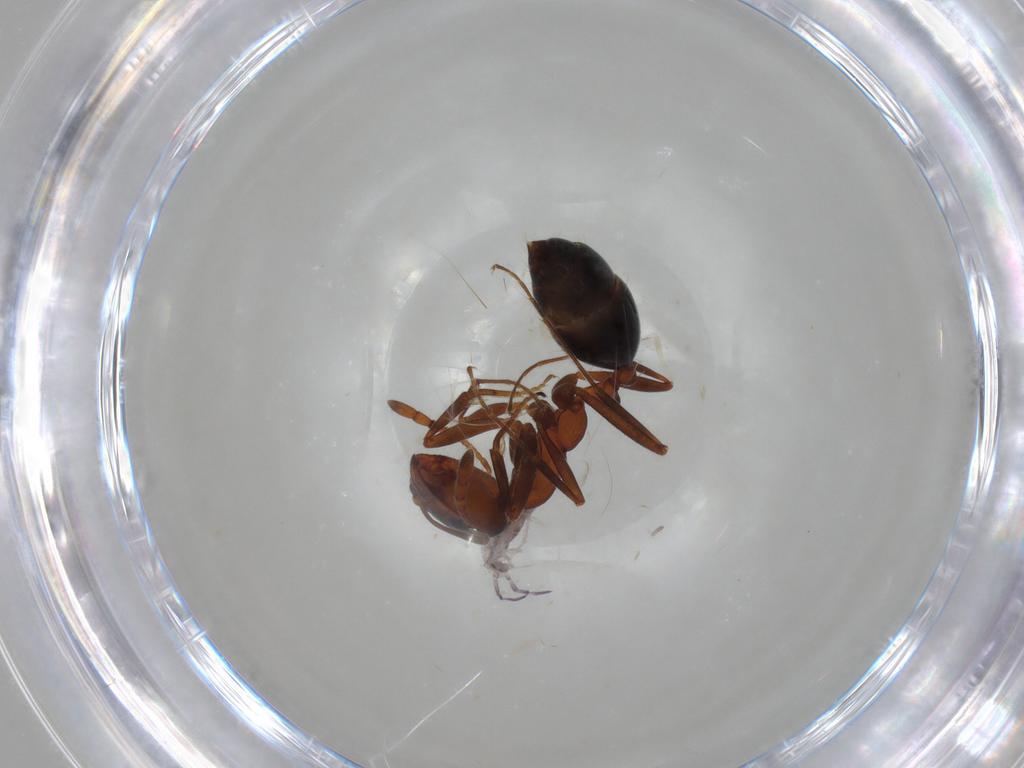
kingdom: Animalia
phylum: Arthropoda
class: Insecta
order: Hymenoptera
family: Formicidae
